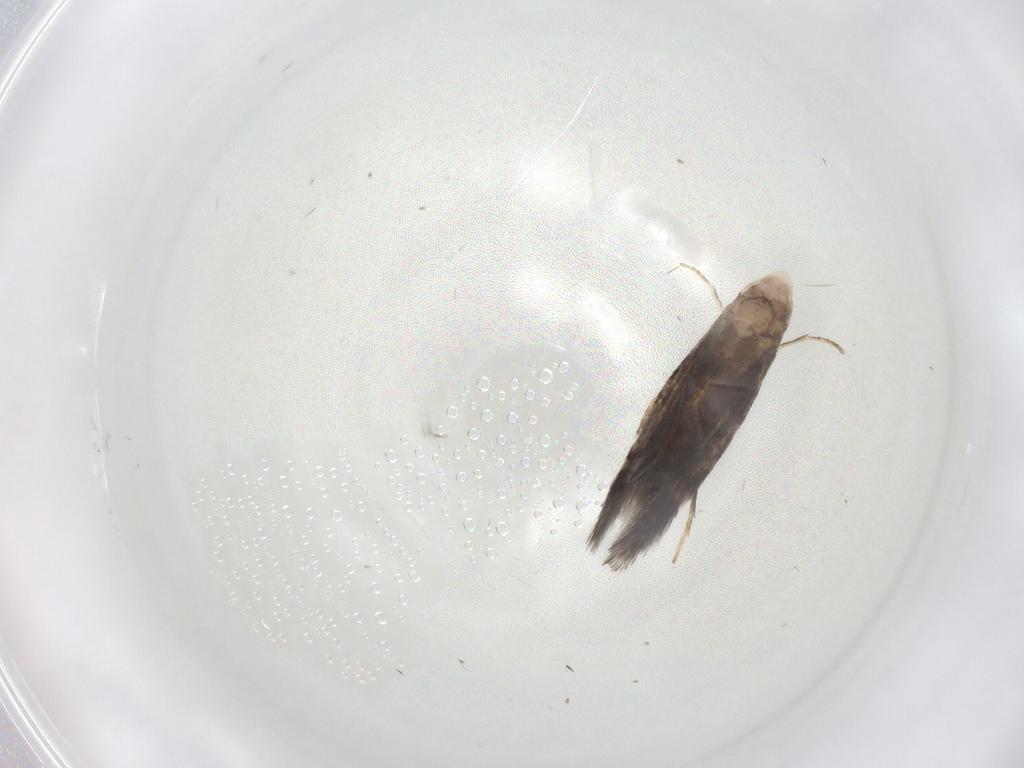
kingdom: Animalia
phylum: Arthropoda
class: Insecta
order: Lepidoptera
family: Geometridae
